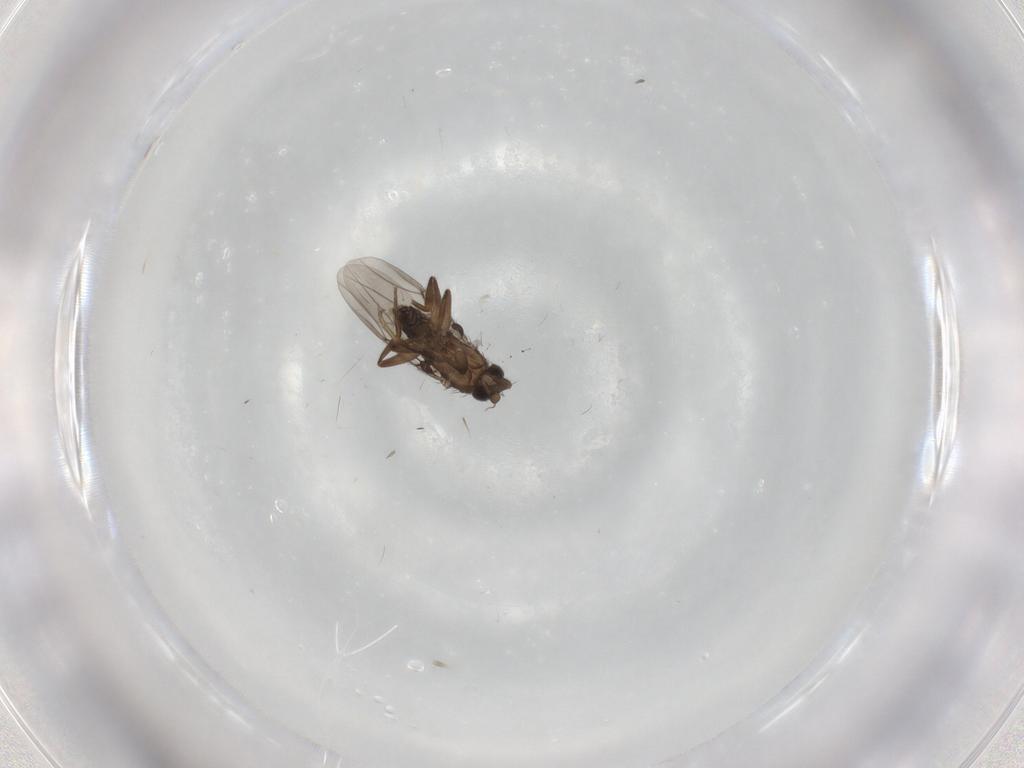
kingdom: Animalia
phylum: Arthropoda
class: Insecta
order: Diptera
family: Phoridae
